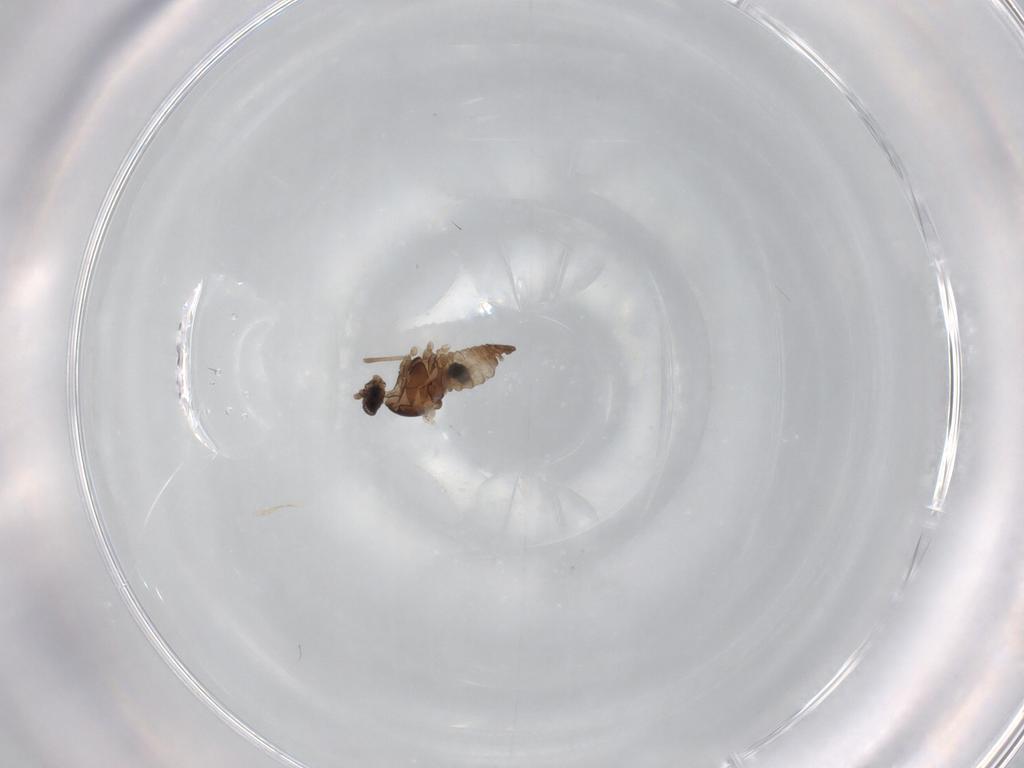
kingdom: Animalia
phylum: Arthropoda
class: Insecta
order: Diptera
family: Cecidomyiidae
